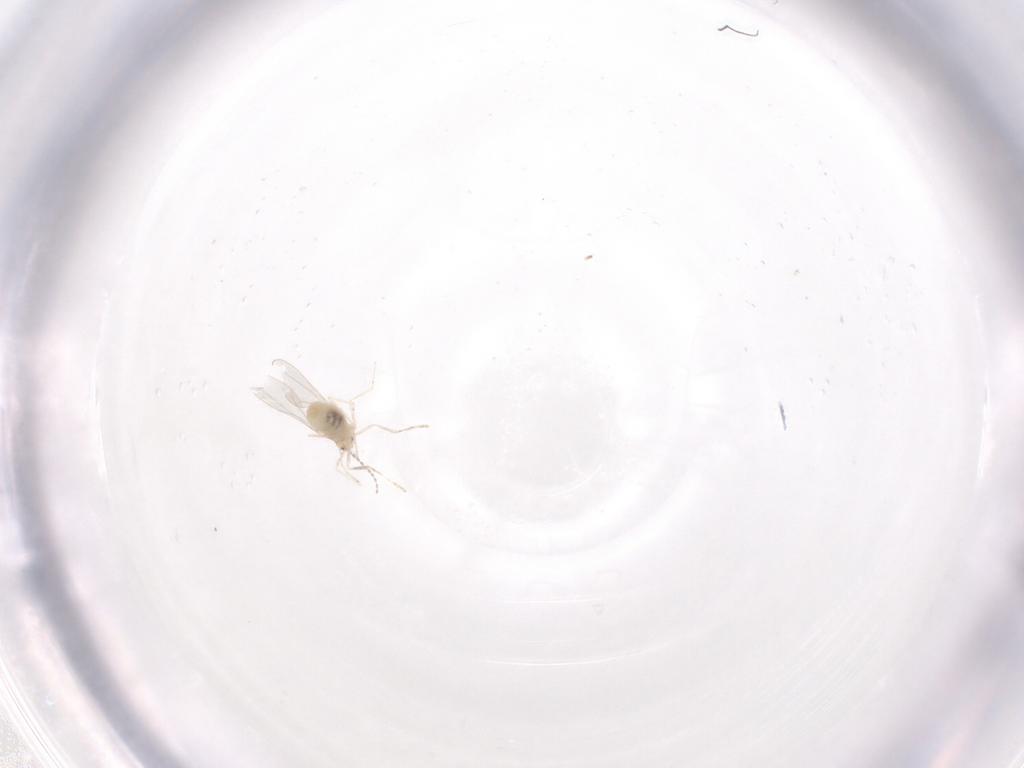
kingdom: Animalia
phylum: Arthropoda
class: Insecta
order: Diptera
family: Cecidomyiidae
